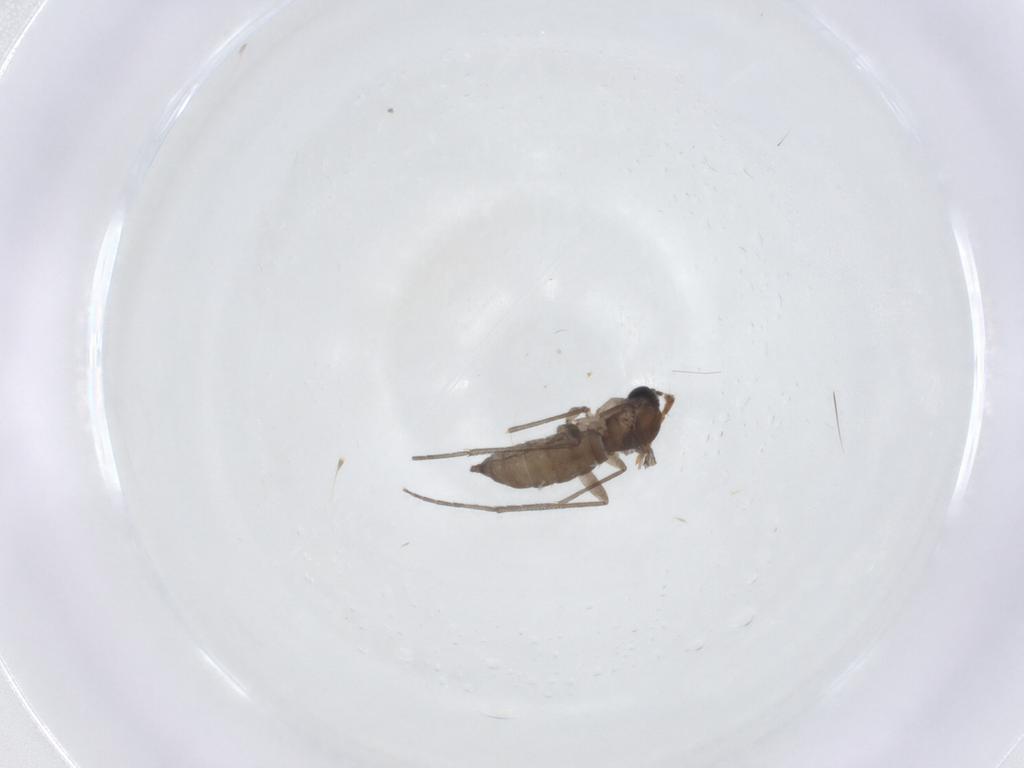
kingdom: Animalia
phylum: Arthropoda
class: Insecta
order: Diptera
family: Sciaridae
